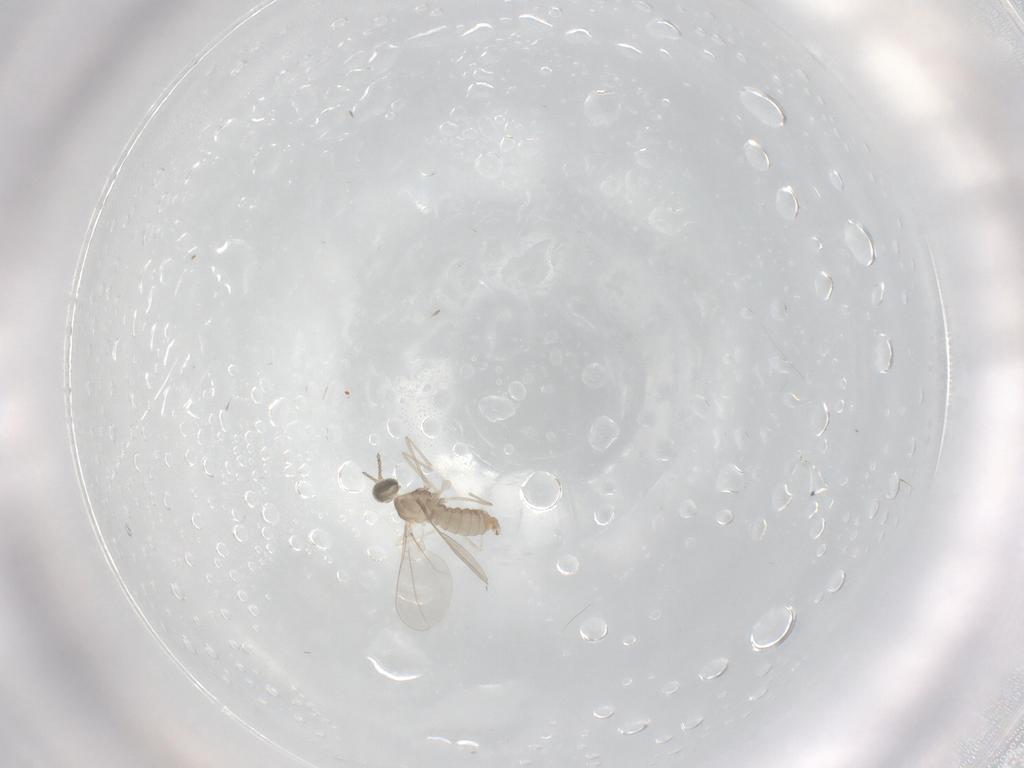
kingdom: Animalia
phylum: Arthropoda
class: Insecta
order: Diptera
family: Cecidomyiidae
